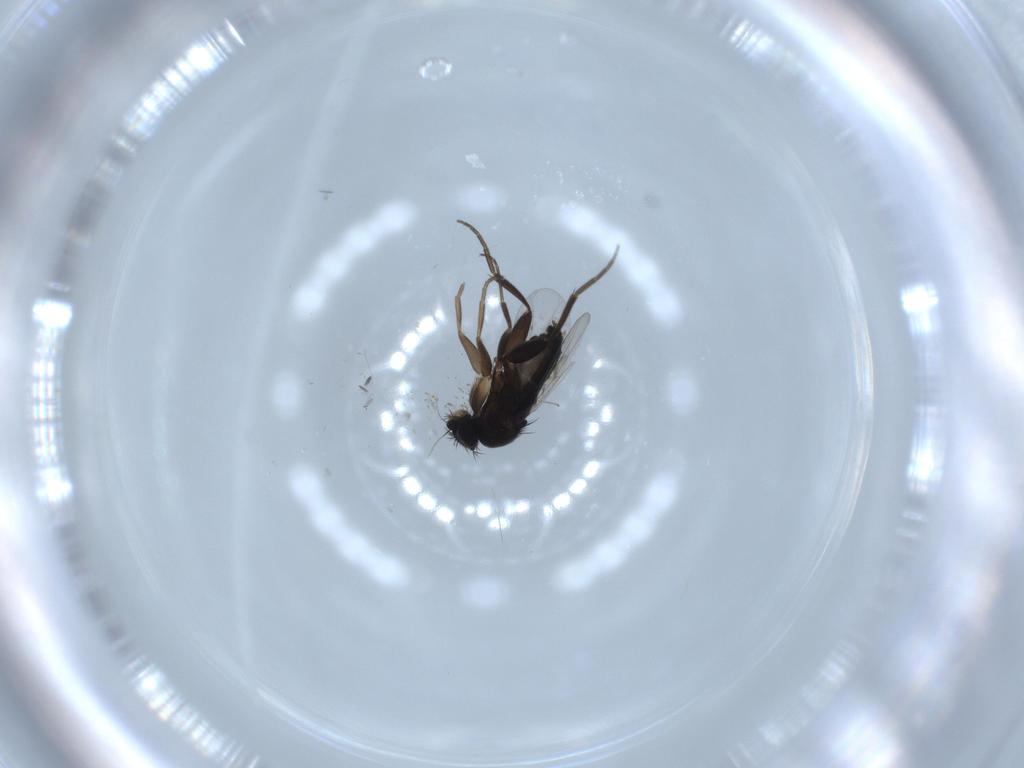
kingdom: Animalia
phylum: Arthropoda
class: Insecta
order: Diptera
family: Phoridae
